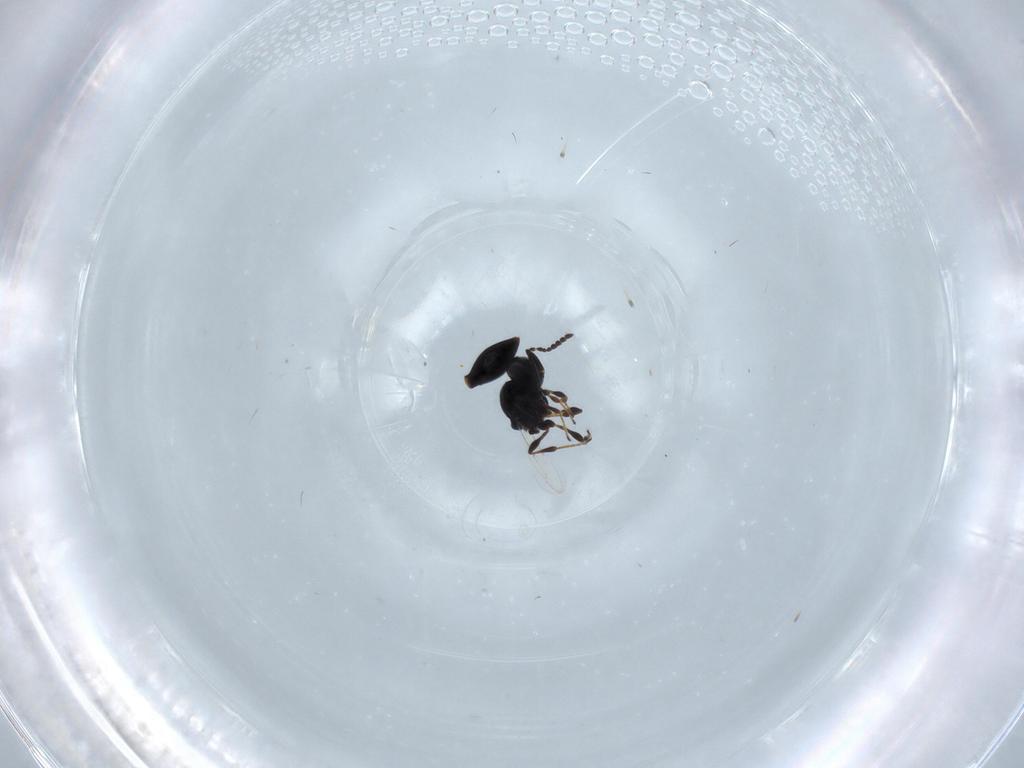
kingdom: Animalia
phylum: Arthropoda
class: Insecta
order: Hymenoptera
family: Platygastridae
